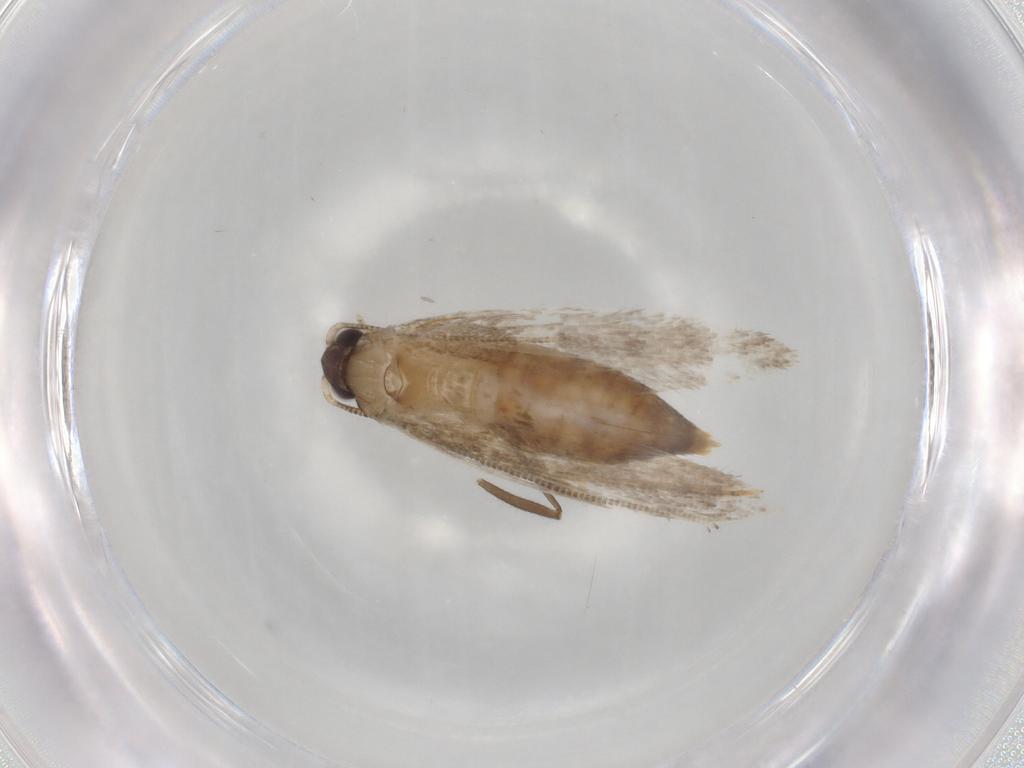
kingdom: Animalia
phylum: Arthropoda
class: Insecta
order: Lepidoptera
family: Tineidae
